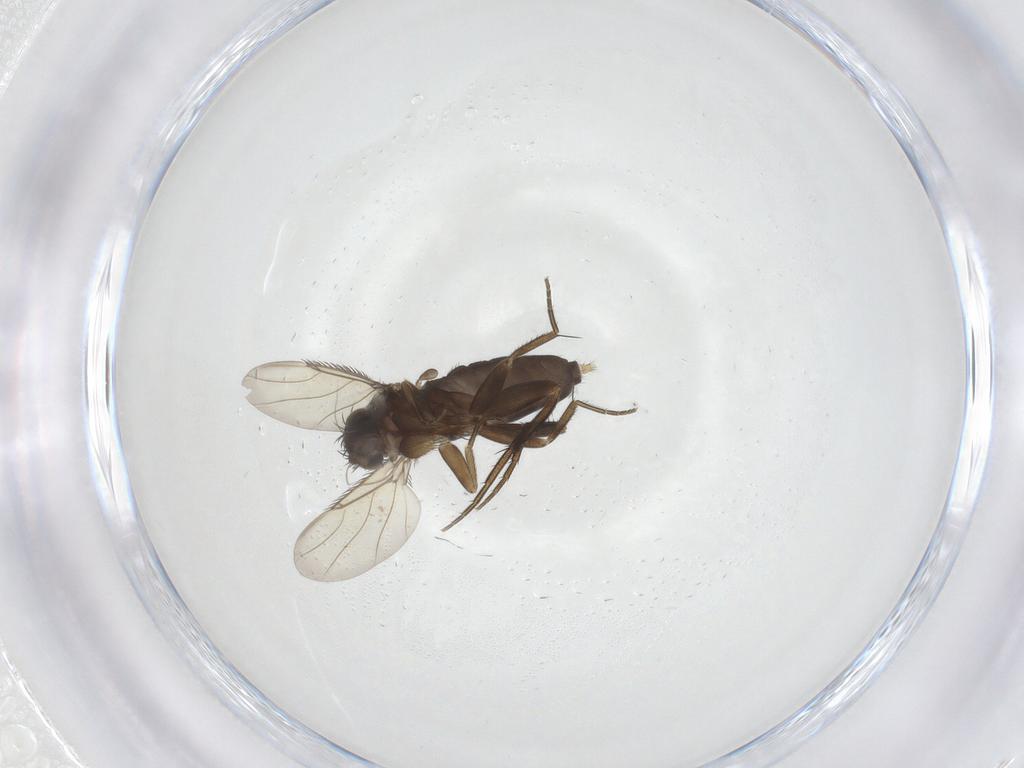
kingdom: Animalia
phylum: Arthropoda
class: Insecta
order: Diptera
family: Phoridae
